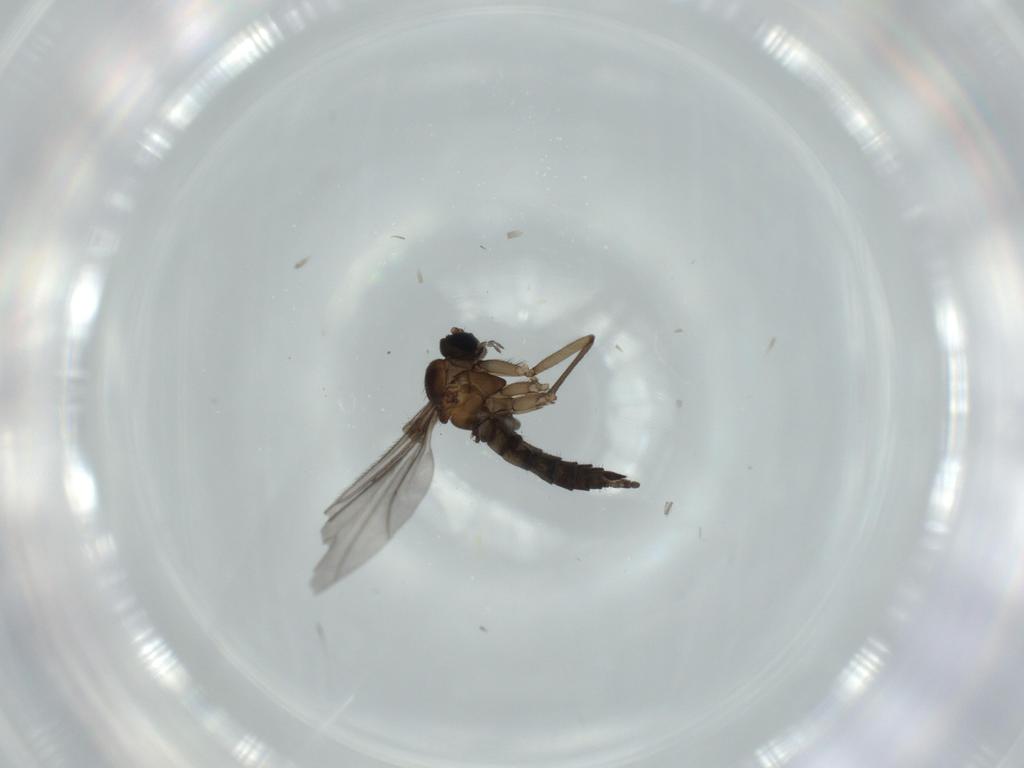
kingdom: Animalia
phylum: Arthropoda
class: Insecta
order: Diptera
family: Sciaridae
